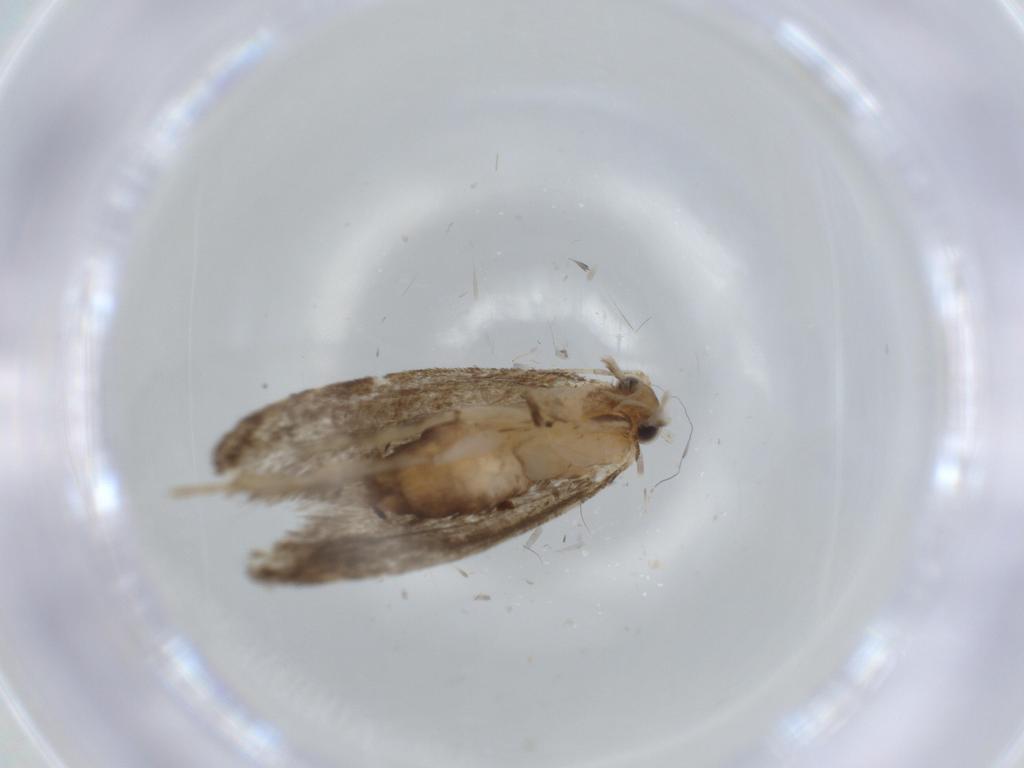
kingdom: Animalia
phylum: Arthropoda
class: Insecta
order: Lepidoptera
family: Tineidae
